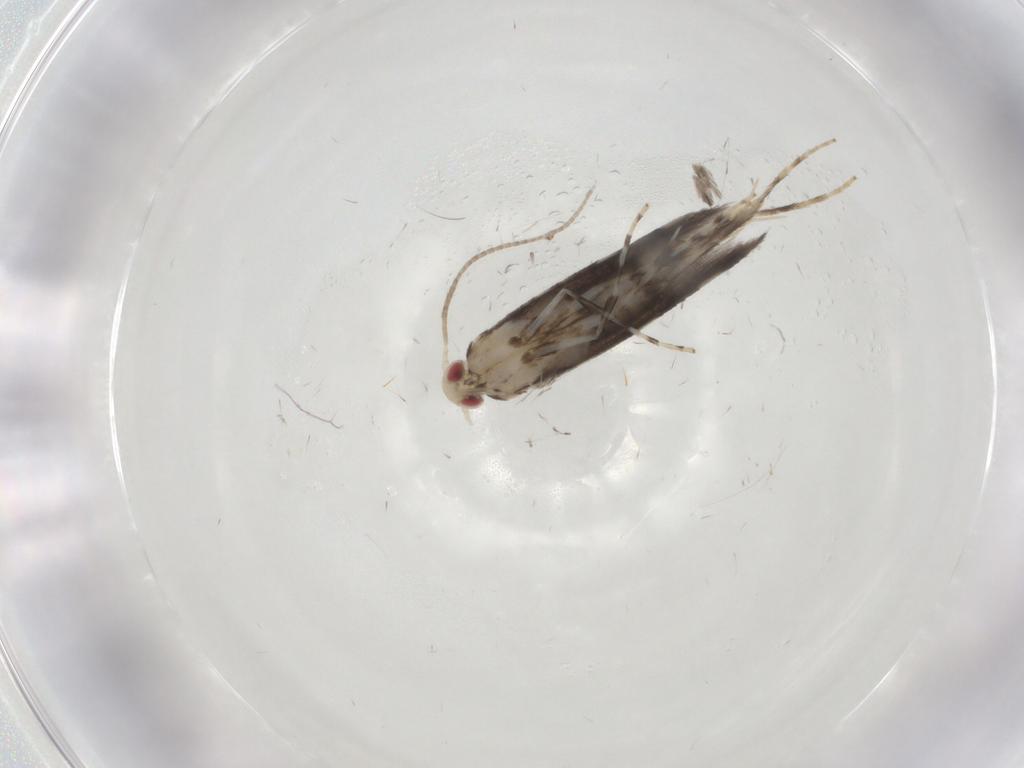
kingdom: Animalia
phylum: Arthropoda
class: Insecta
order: Lepidoptera
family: Gracillariidae
